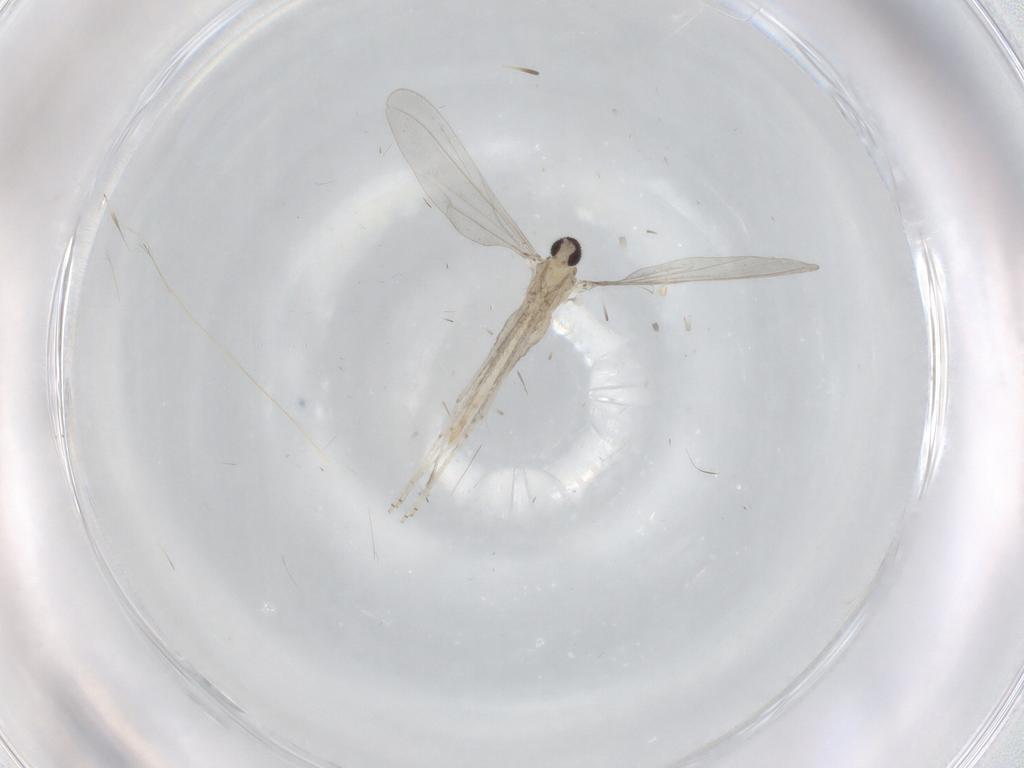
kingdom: Animalia
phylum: Arthropoda
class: Insecta
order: Diptera
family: Cecidomyiidae
